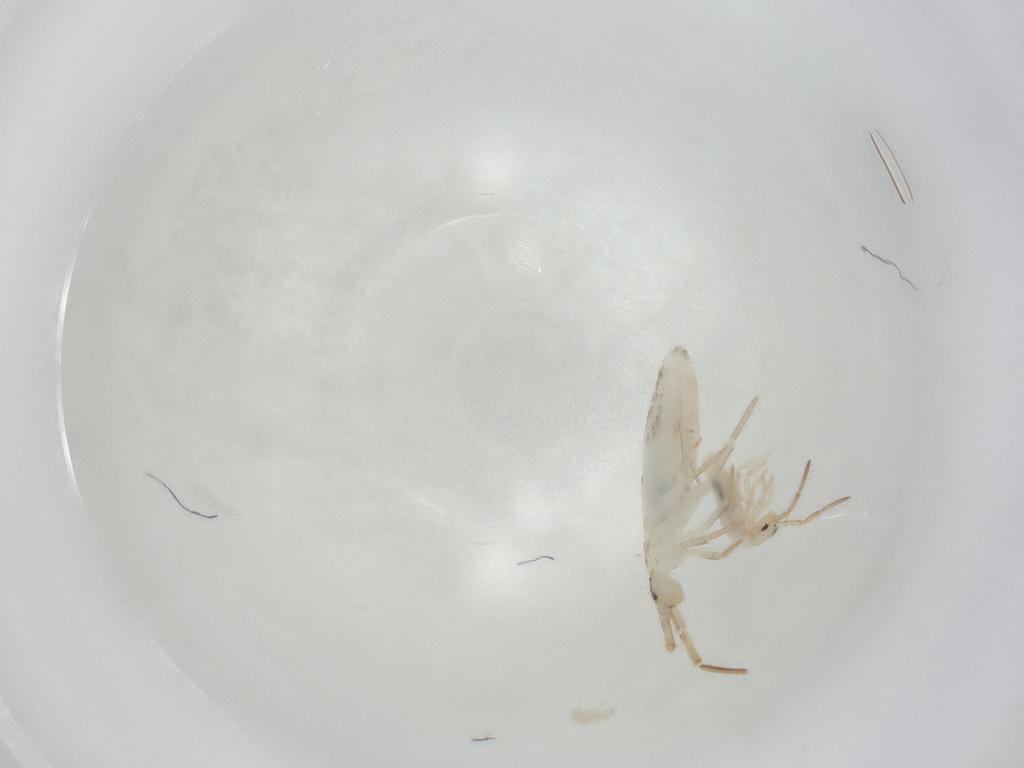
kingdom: Animalia
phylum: Arthropoda
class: Collembola
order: Entomobryomorpha
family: Entomobryidae
